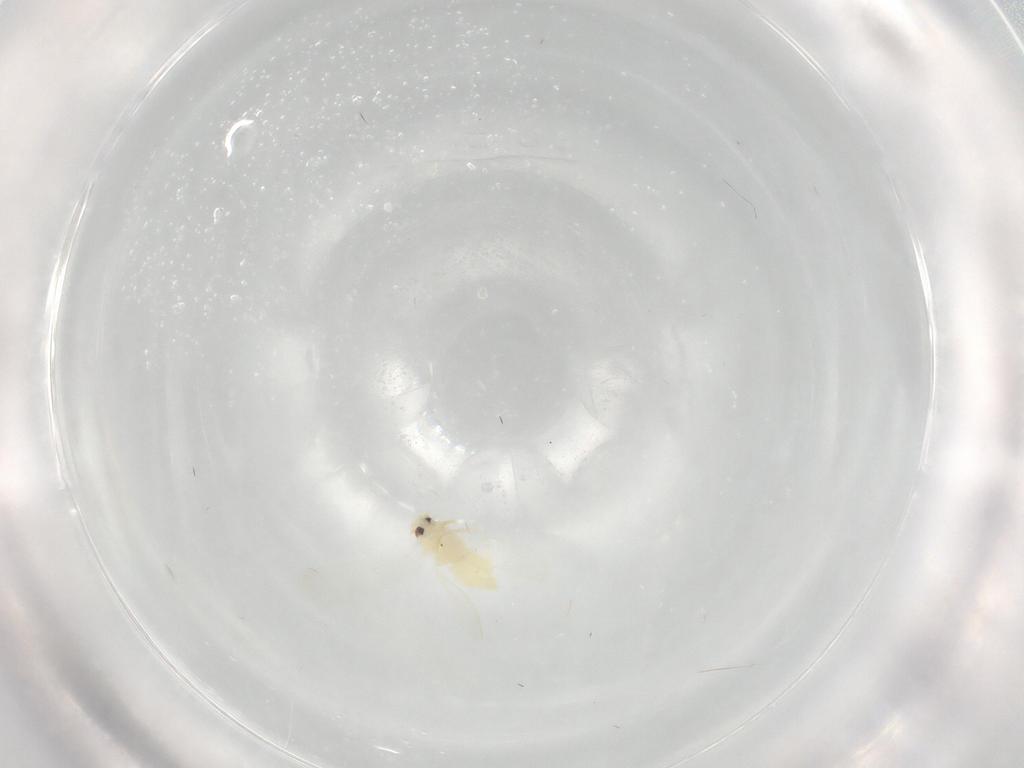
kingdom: Animalia
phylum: Arthropoda
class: Insecta
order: Hemiptera
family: Aleyrodidae
